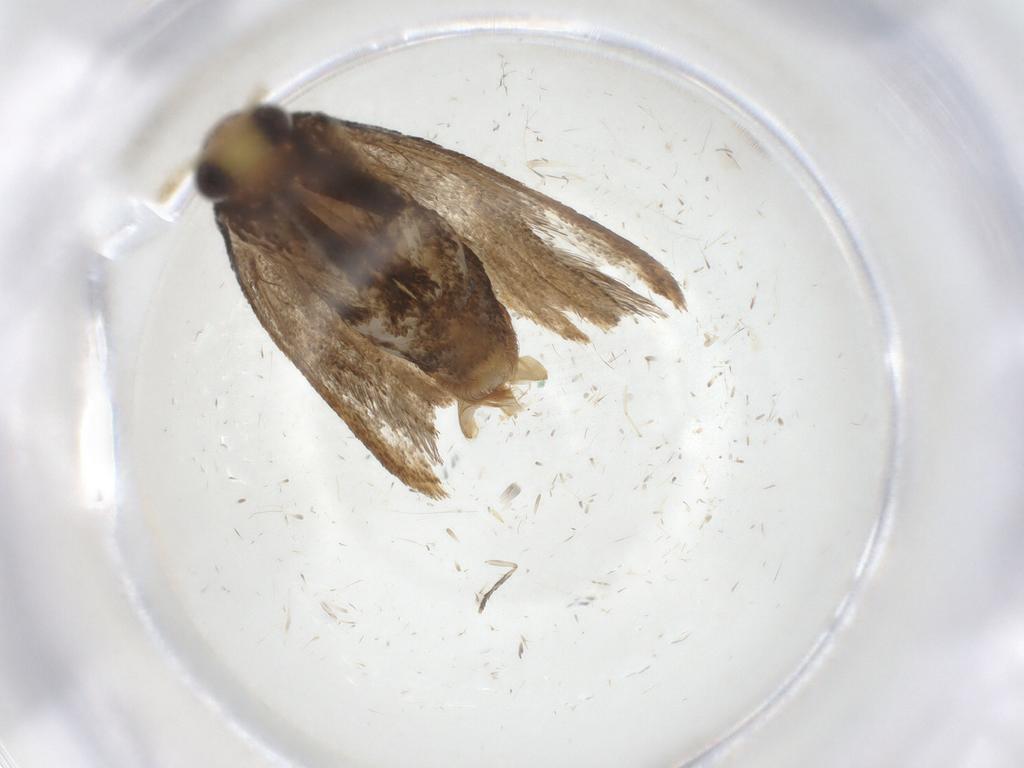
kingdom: Animalia
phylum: Arthropoda
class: Insecta
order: Lepidoptera
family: Lecithoceridae
